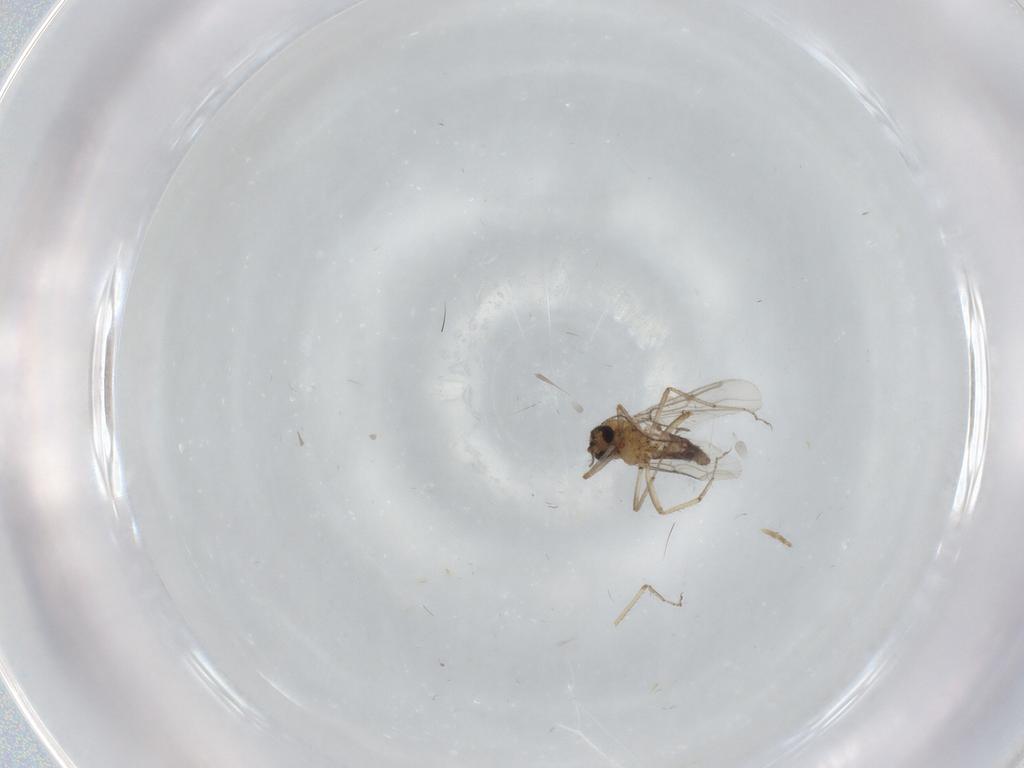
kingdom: Animalia
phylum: Arthropoda
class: Insecta
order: Diptera
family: Chironomidae
